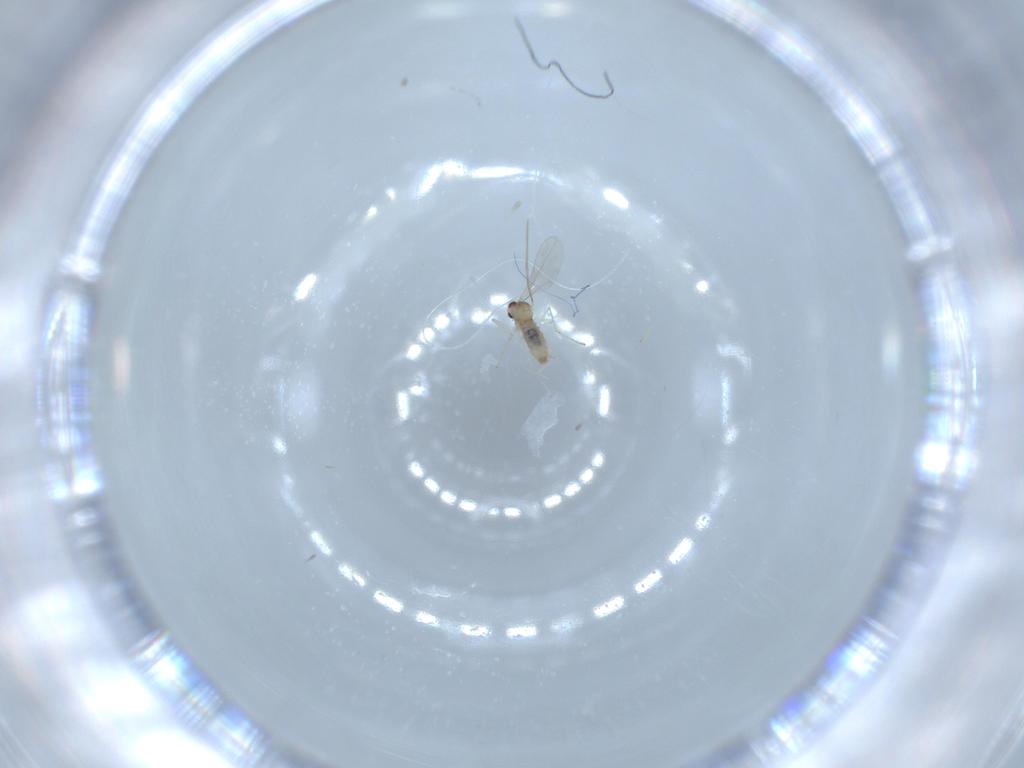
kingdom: Animalia
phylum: Arthropoda
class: Insecta
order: Diptera
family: Cecidomyiidae
